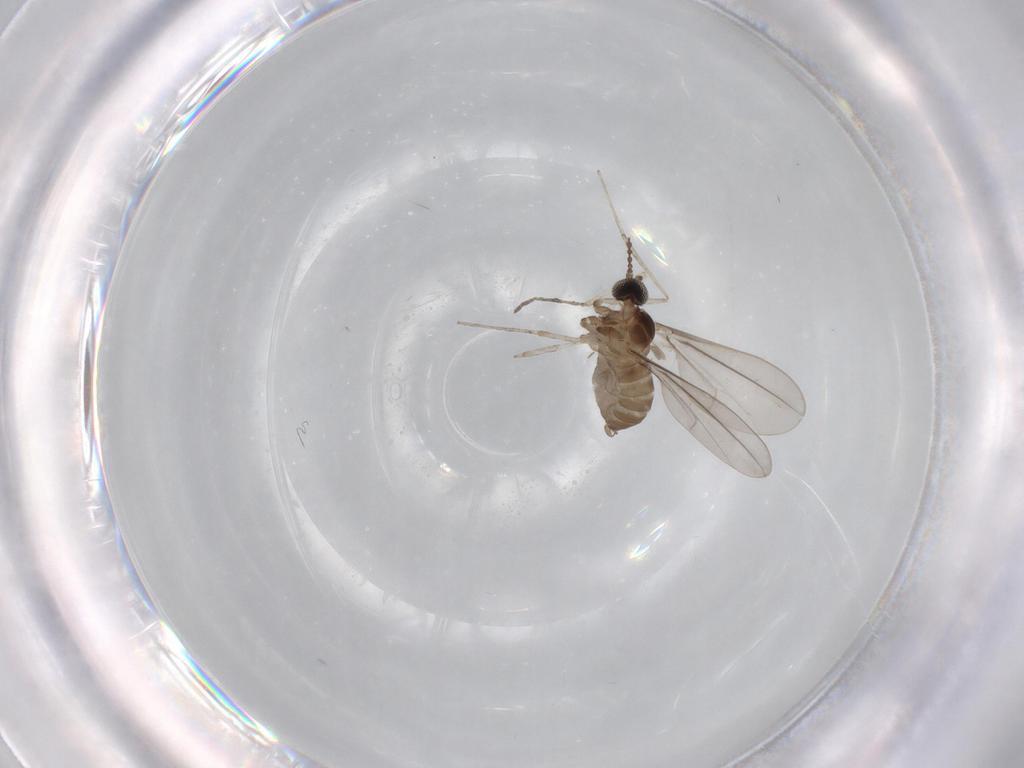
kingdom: Animalia
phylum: Arthropoda
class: Insecta
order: Diptera
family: Cecidomyiidae
